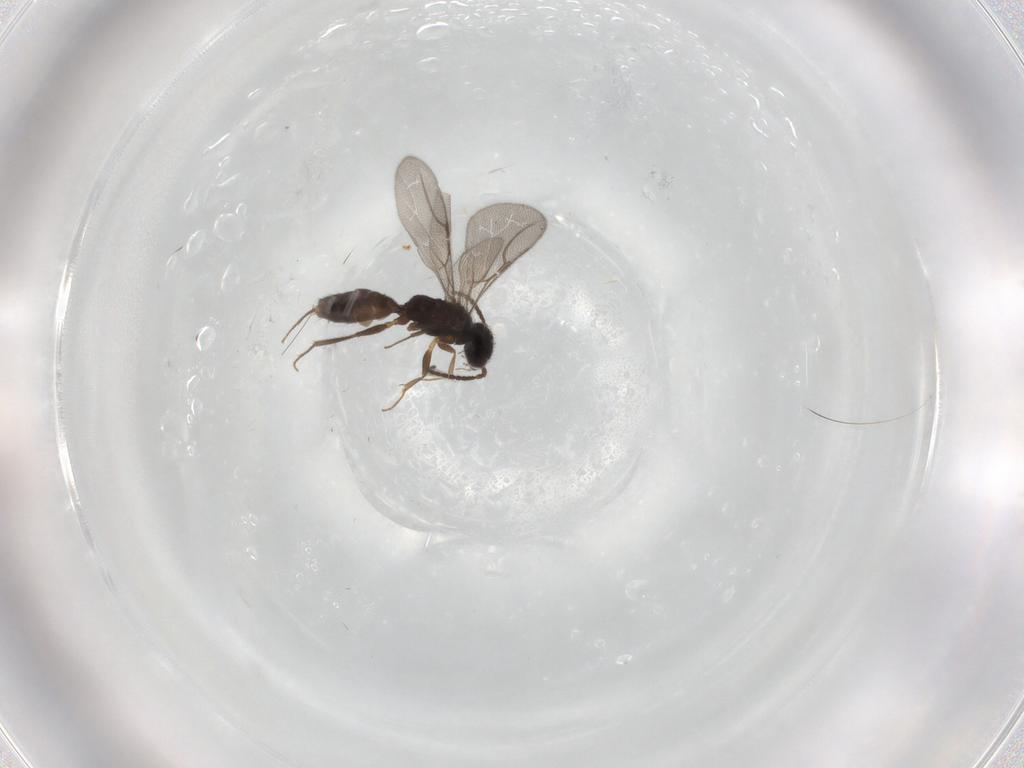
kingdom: Animalia
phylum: Arthropoda
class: Insecta
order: Hymenoptera
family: Bethylidae
